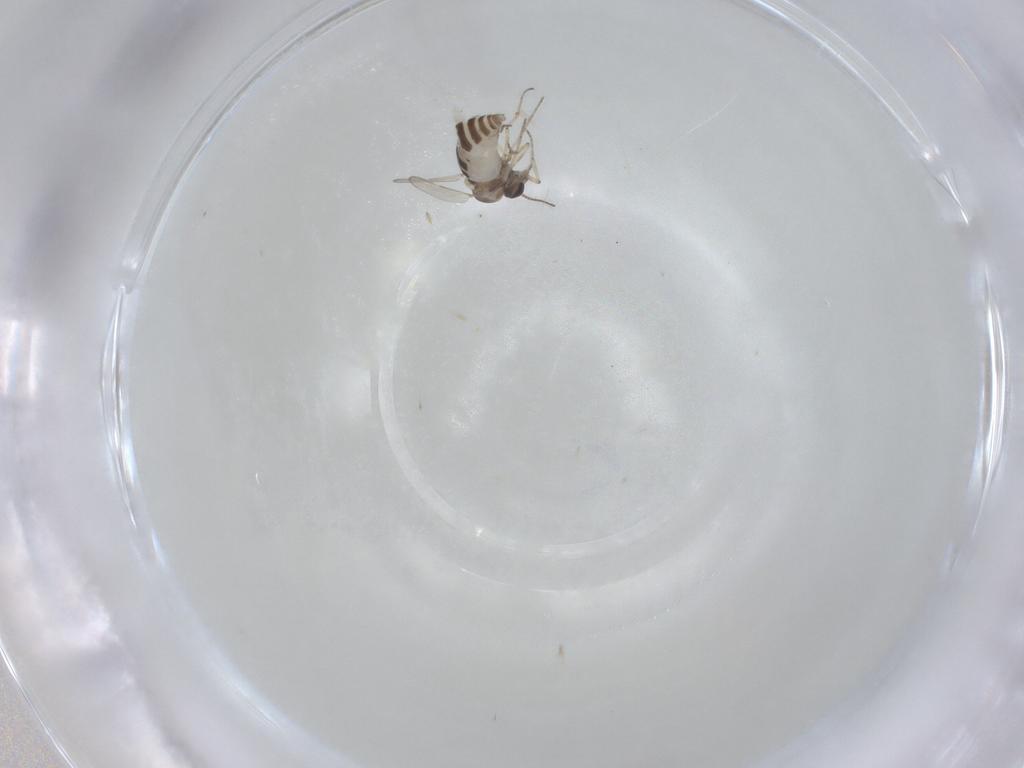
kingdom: Animalia
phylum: Arthropoda
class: Insecta
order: Diptera
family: Ceratopogonidae
